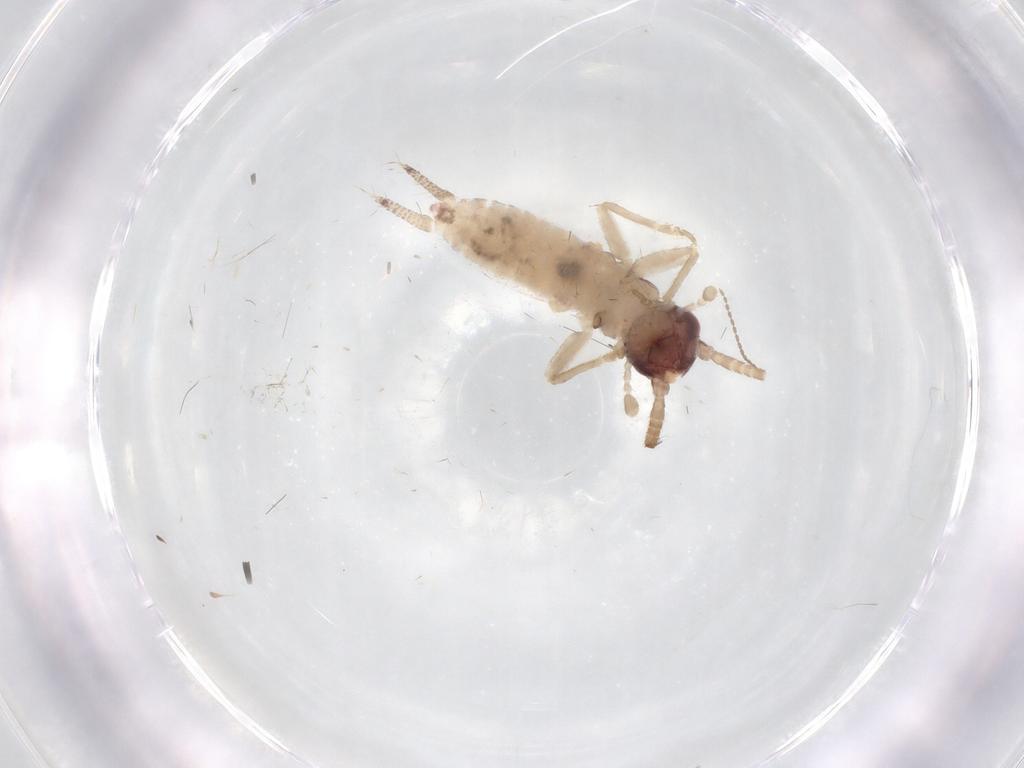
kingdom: Animalia
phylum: Arthropoda
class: Insecta
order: Orthoptera
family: Gryllidae
